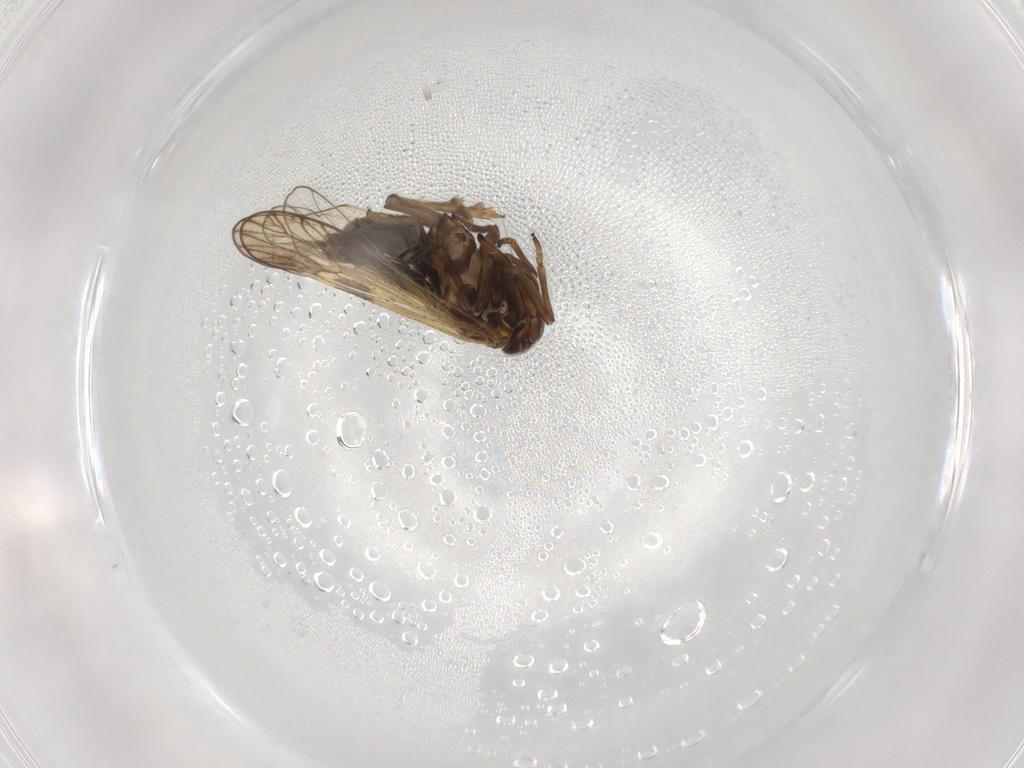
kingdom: Animalia
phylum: Arthropoda
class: Insecta
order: Hemiptera
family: Delphacidae
